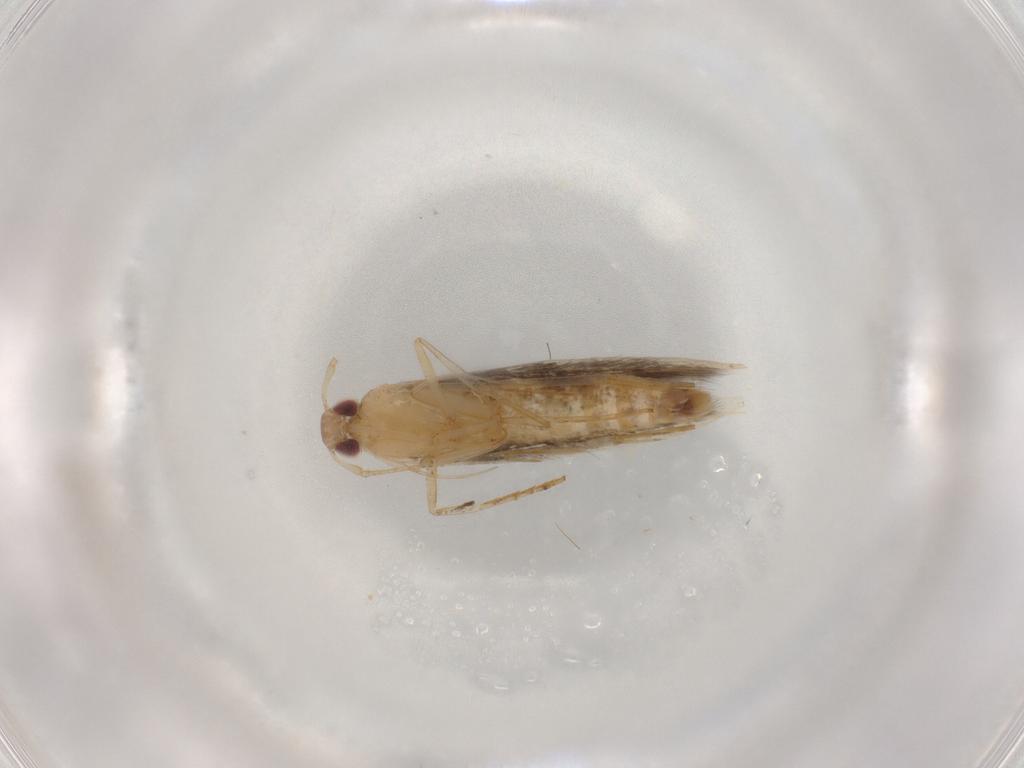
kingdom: Animalia
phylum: Arthropoda
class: Insecta
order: Lepidoptera
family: Cosmopterigidae
